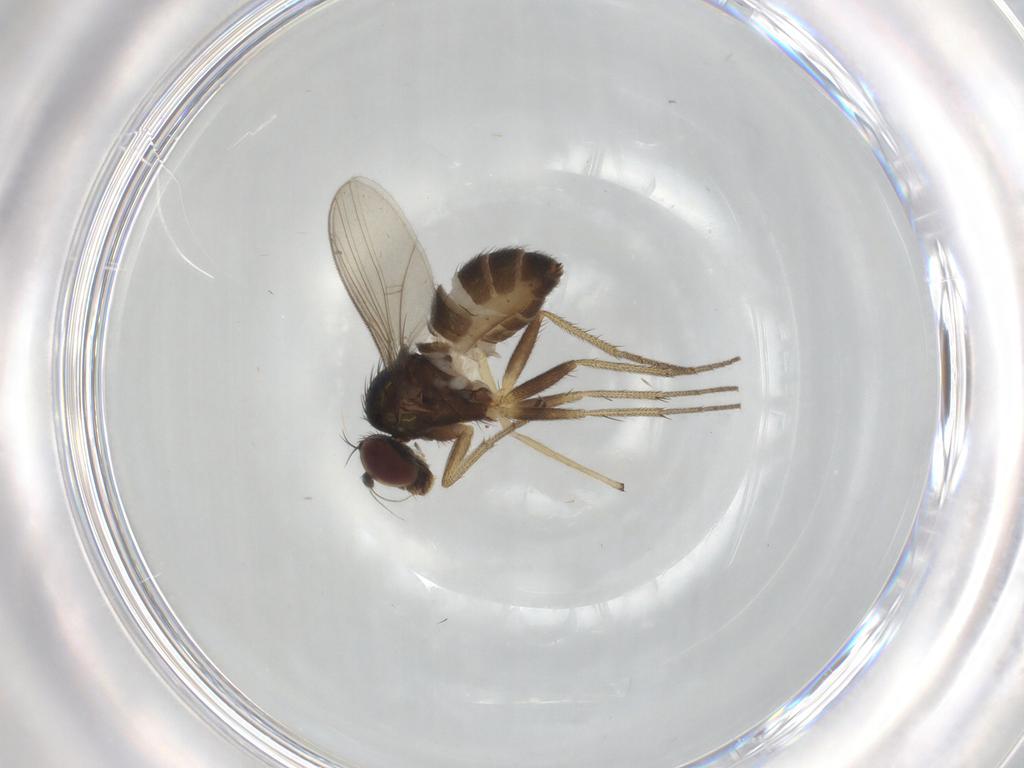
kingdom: Animalia
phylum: Arthropoda
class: Insecta
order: Diptera
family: Dolichopodidae
